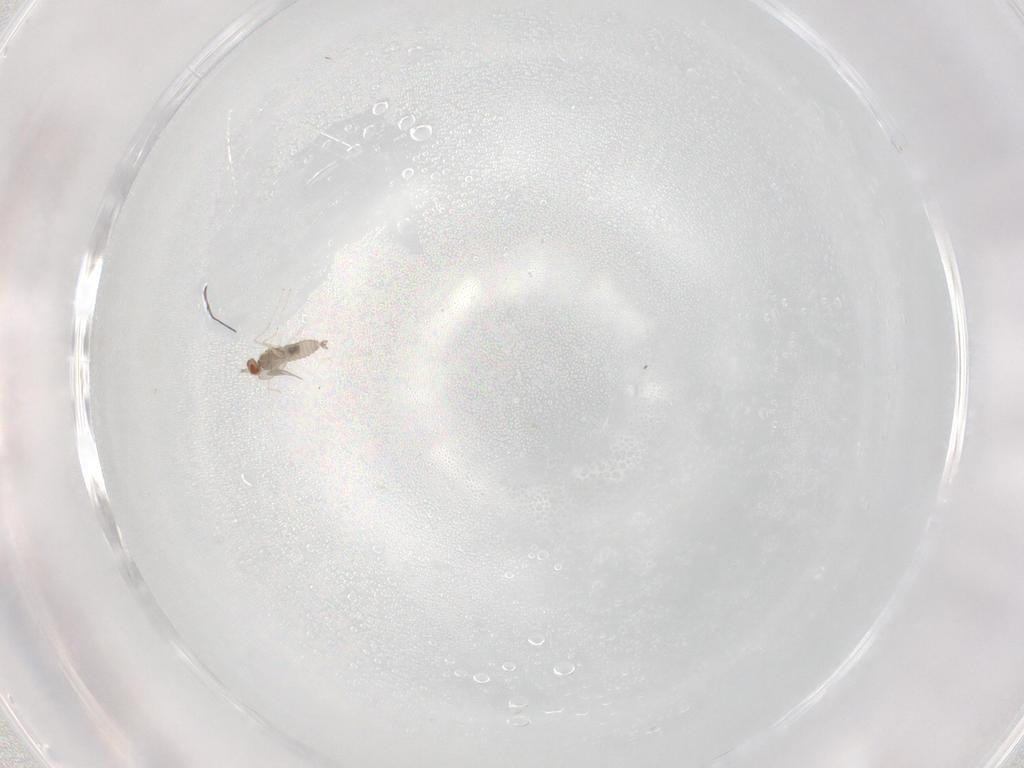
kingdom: Animalia
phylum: Arthropoda
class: Insecta
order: Diptera
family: Cecidomyiidae
